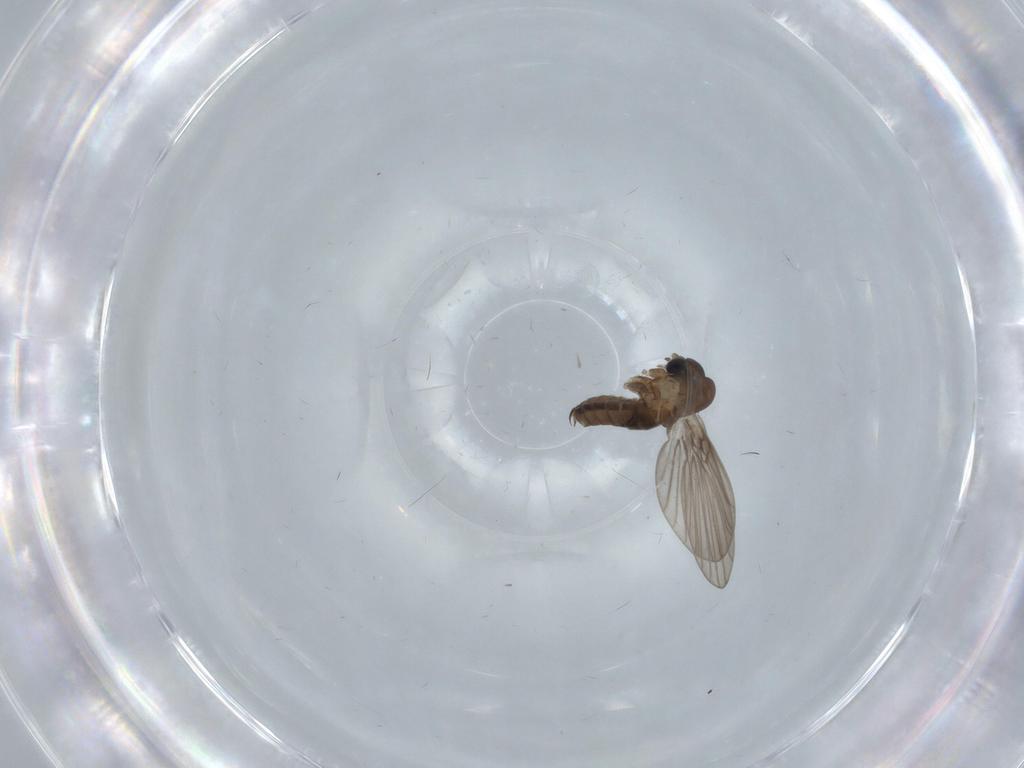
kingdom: Animalia
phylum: Arthropoda
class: Insecta
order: Diptera
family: Psychodidae
